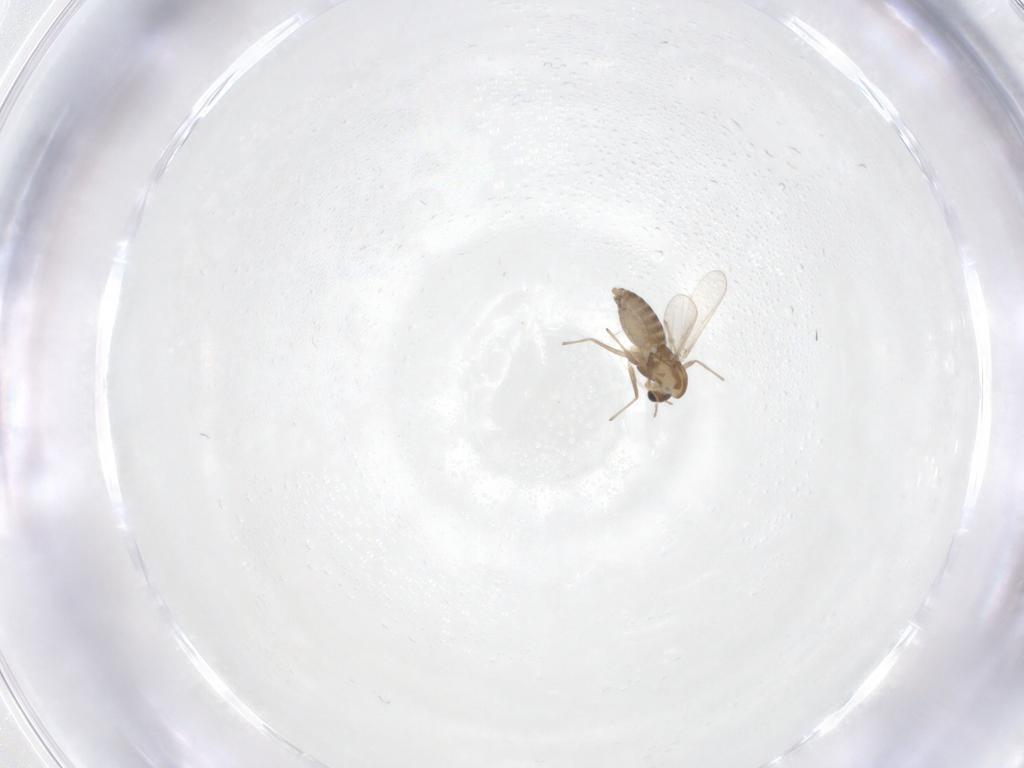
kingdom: Animalia
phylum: Arthropoda
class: Insecta
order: Diptera
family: Chironomidae
